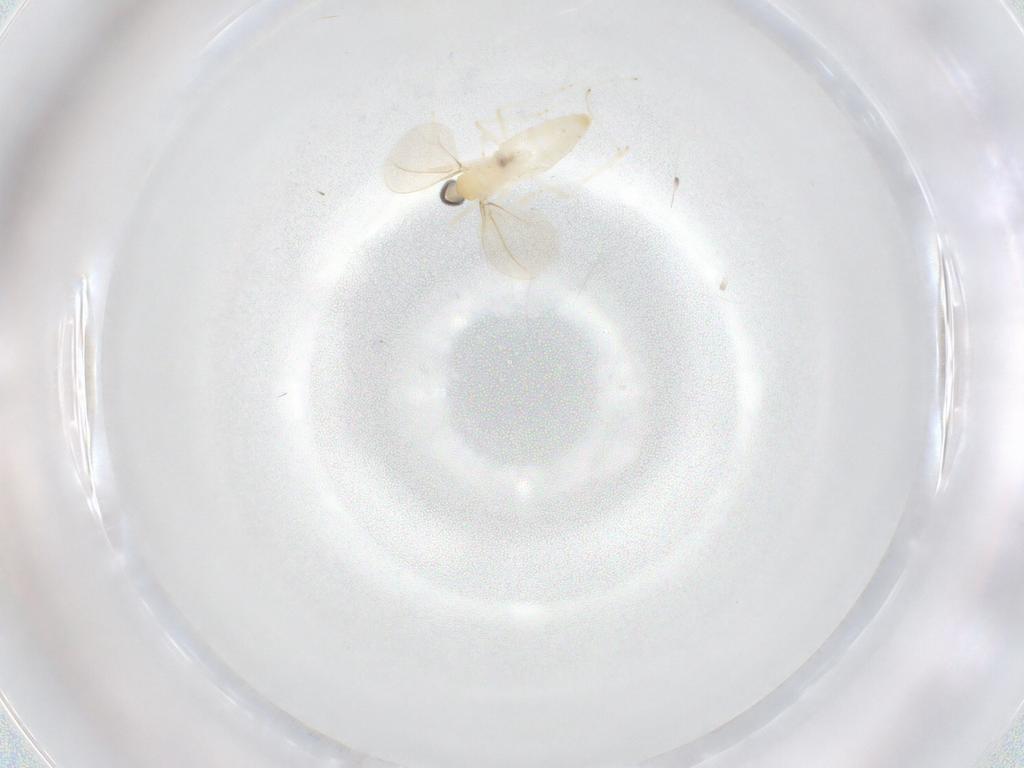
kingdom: Animalia
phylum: Arthropoda
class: Insecta
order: Diptera
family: Cecidomyiidae
